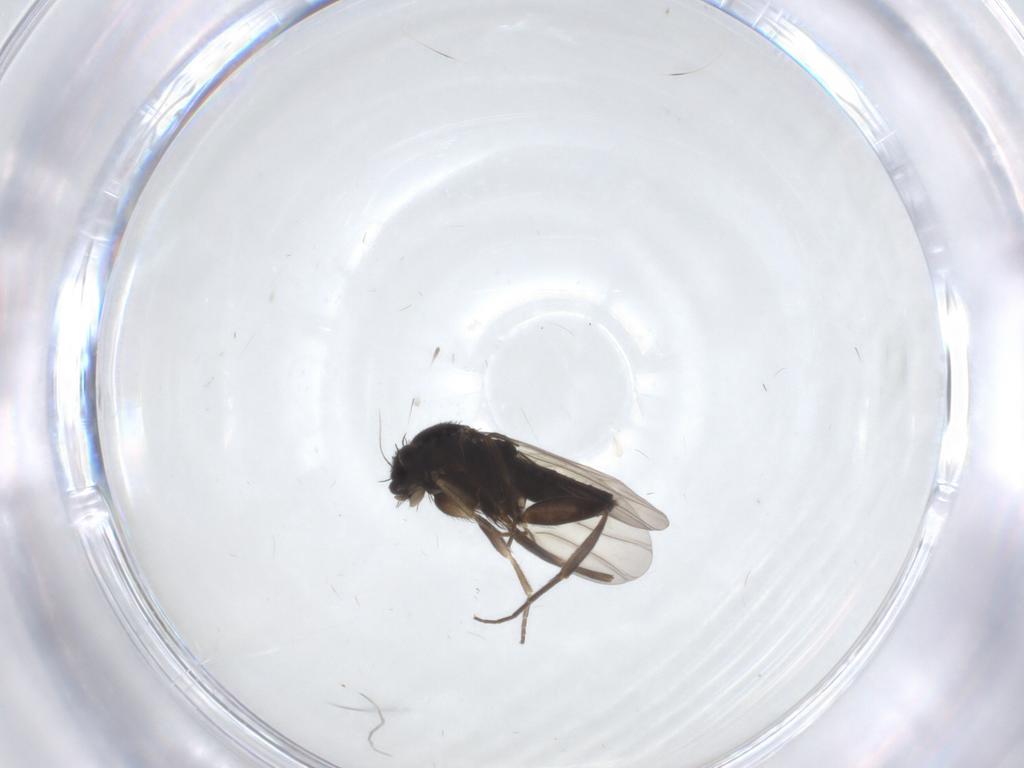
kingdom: Animalia
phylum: Arthropoda
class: Insecta
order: Diptera
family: Phoridae
